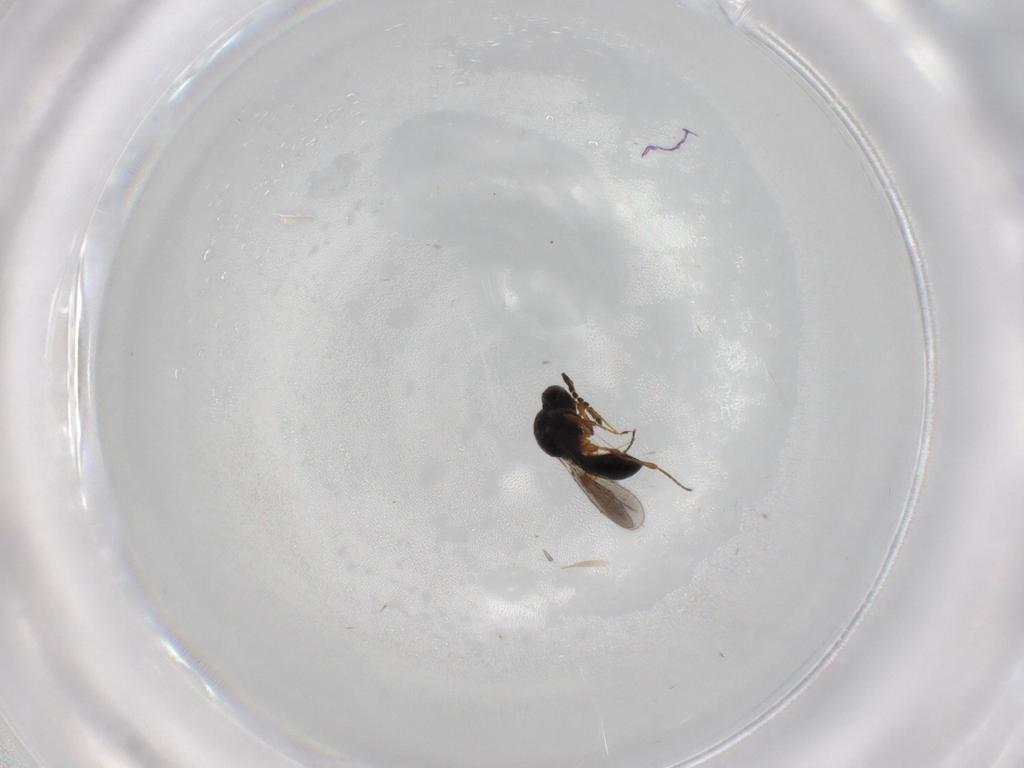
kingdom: Animalia
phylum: Arthropoda
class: Insecta
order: Hymenoptera
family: Platygastridae
